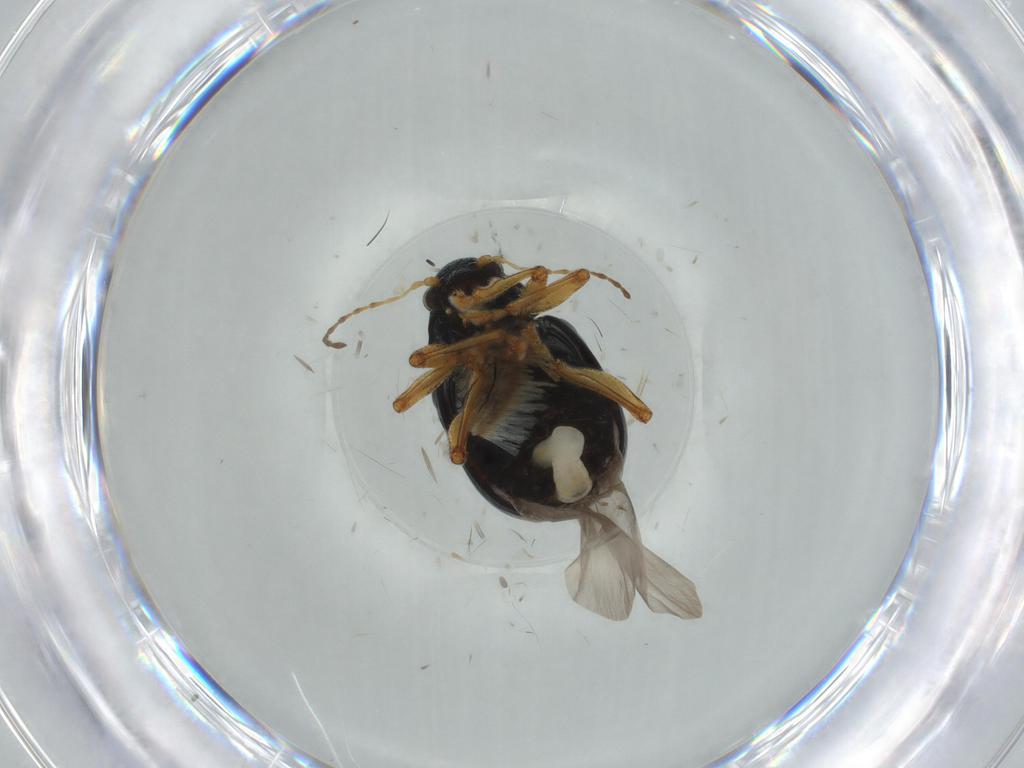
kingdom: Animalia
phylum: Arthropoda
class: Insecta
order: Coleoptera
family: Chrysomelidae
